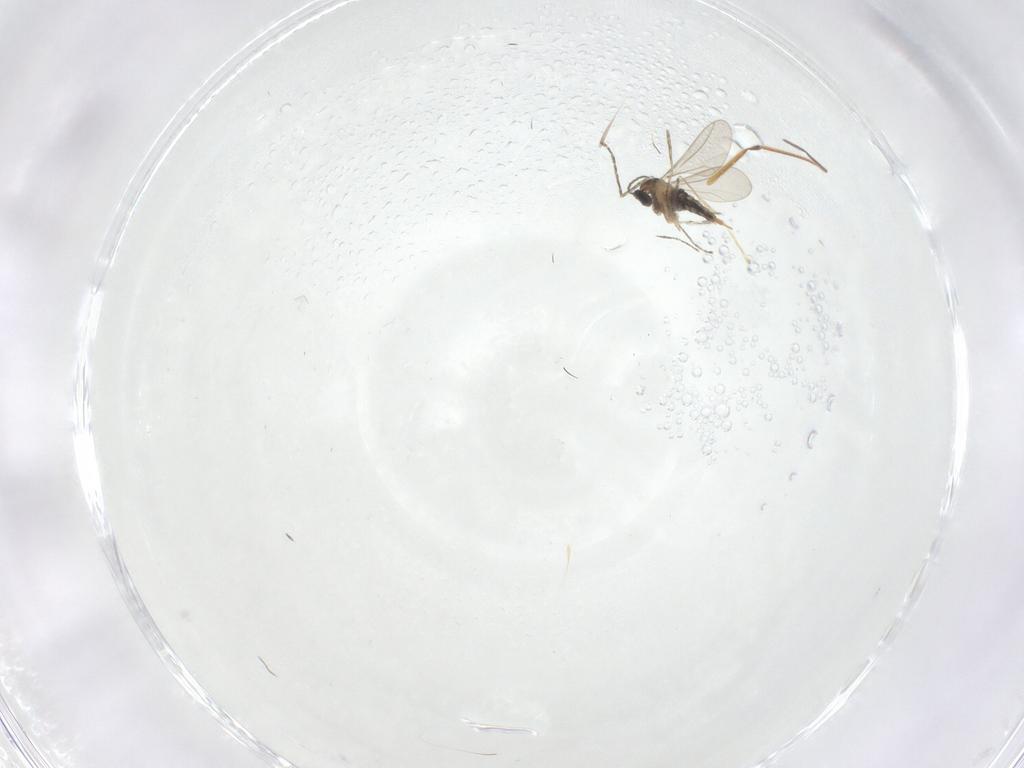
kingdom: Animalia
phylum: Arthropoda
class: Insecta
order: Diptera
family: Cecidomyiidae
